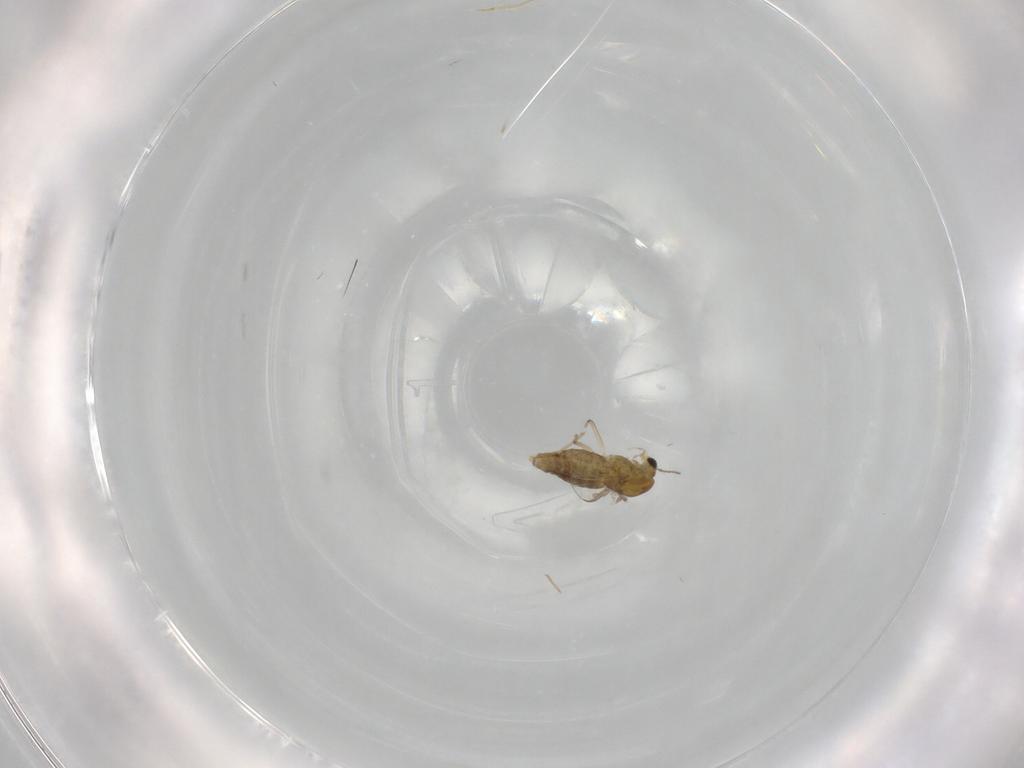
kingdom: Animalia
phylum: Arthropoda
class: Insecta
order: Diptera
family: Chironomidae
